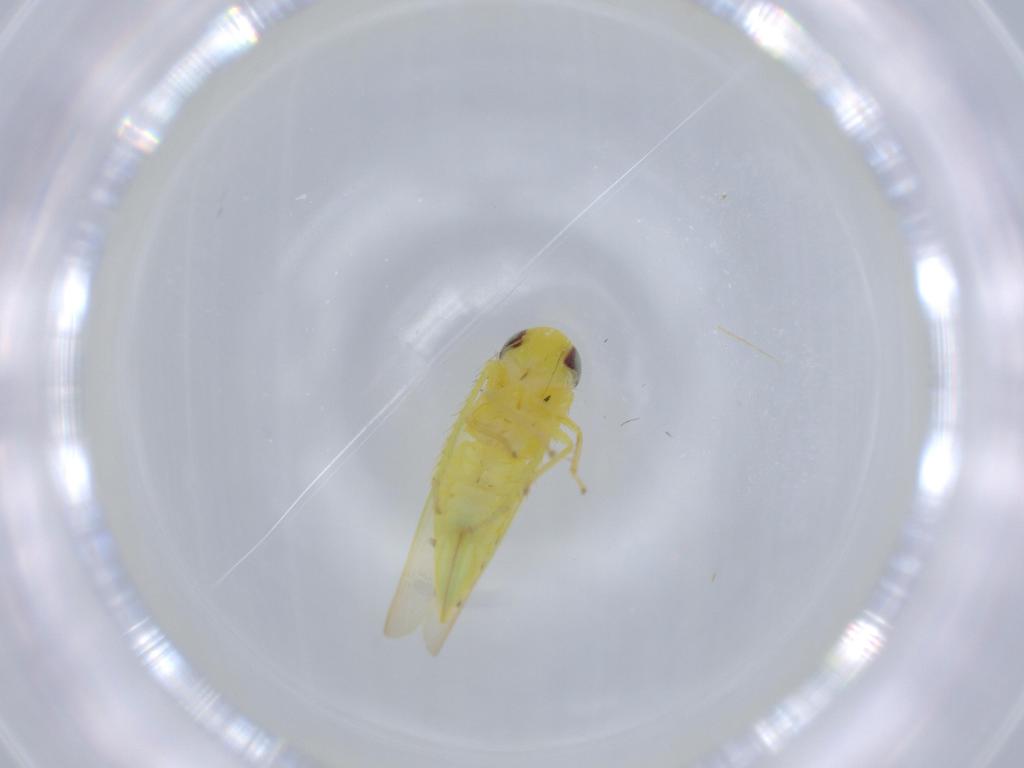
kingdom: Animalia
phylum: Arthropoda
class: Insecta
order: Hemiptera
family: Cicadellidae
